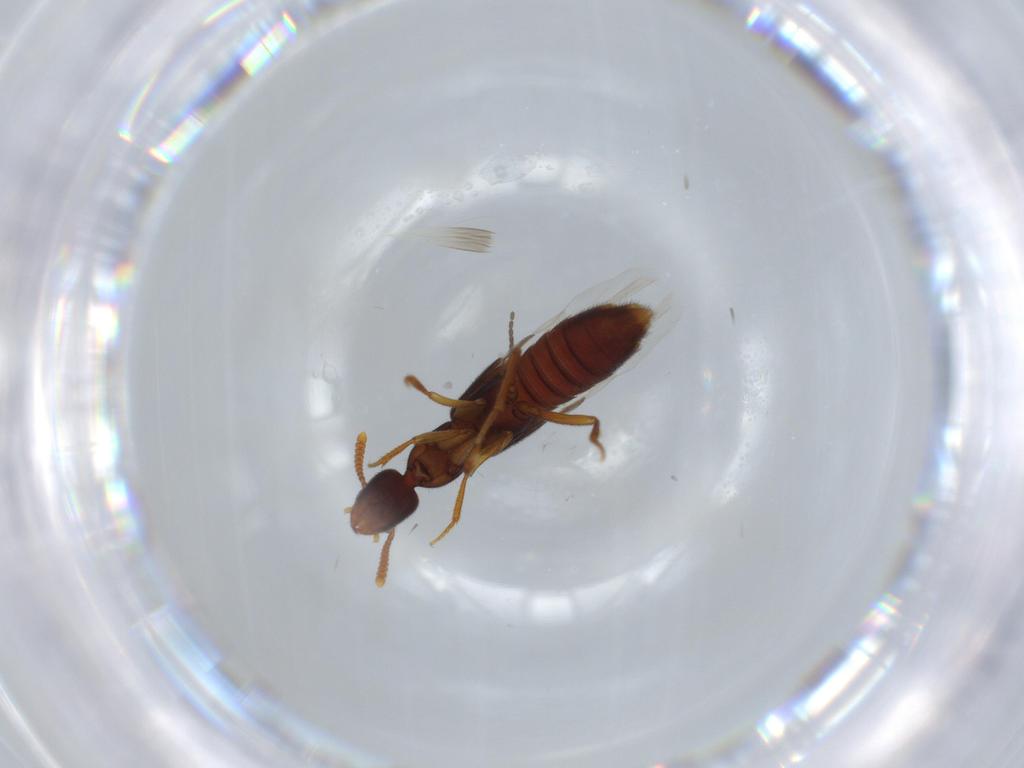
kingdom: Animalia
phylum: Arthropoda
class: Insecta
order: Coleoptera
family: Staphylinidae
